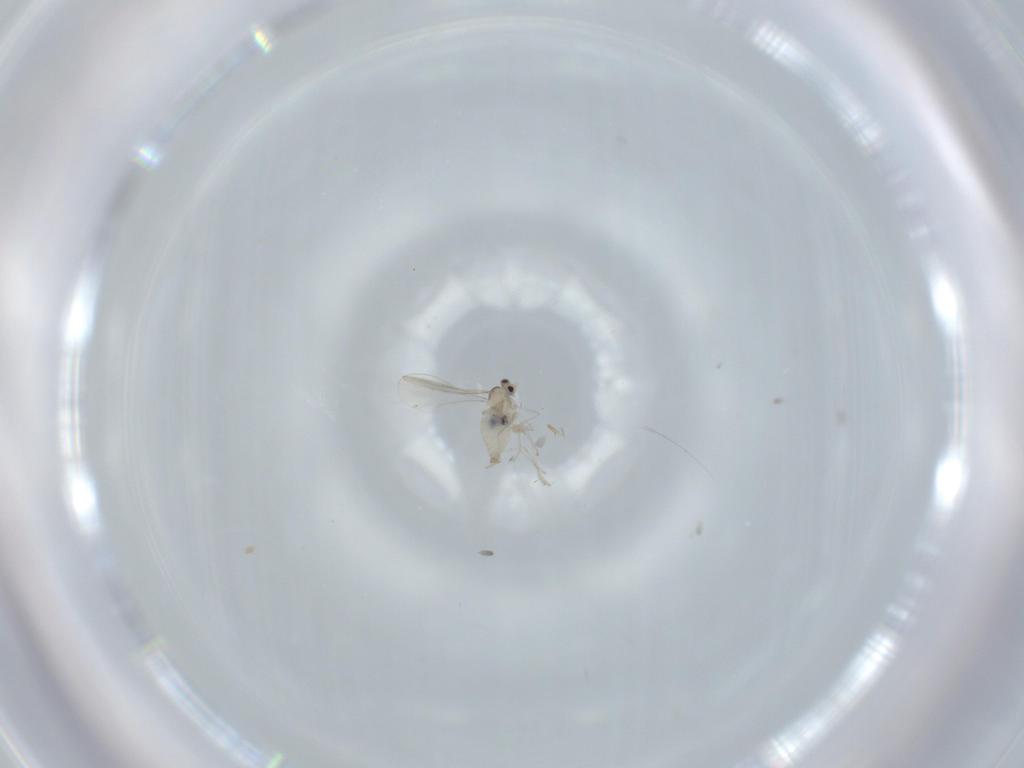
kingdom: Animalia
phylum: Arthropoda
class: Insecta
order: Diptera
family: Cecidomyiidae
